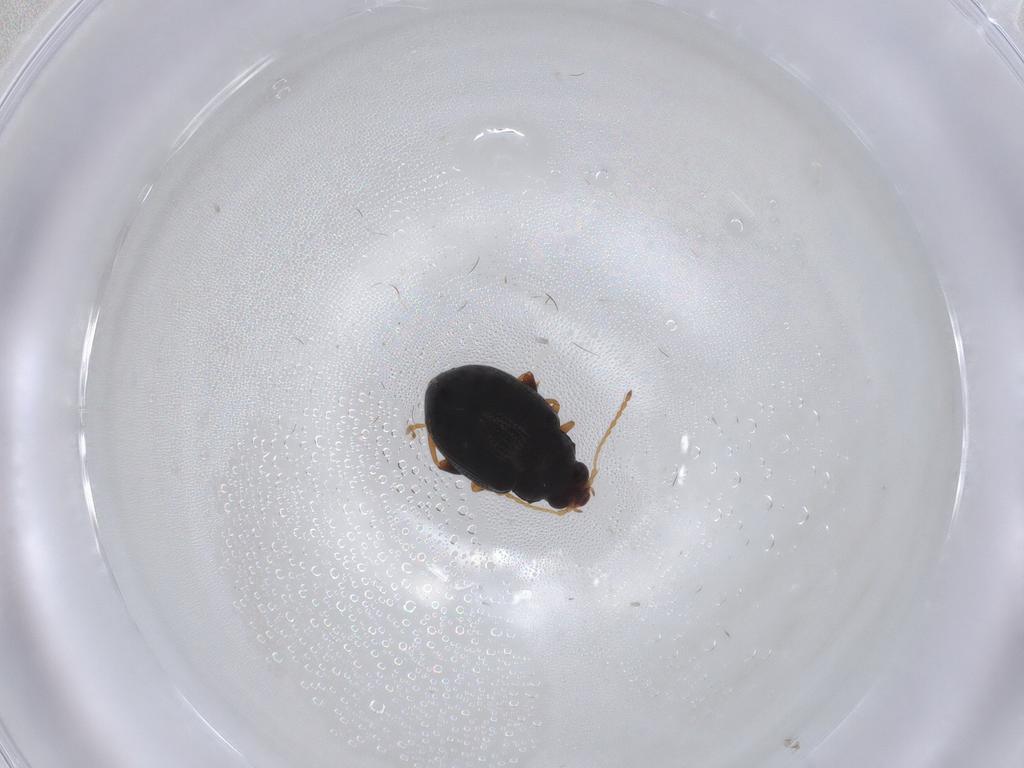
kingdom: Animalia
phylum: Arthropoda
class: Insecta
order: Coleoptera
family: Chrysomelidae
